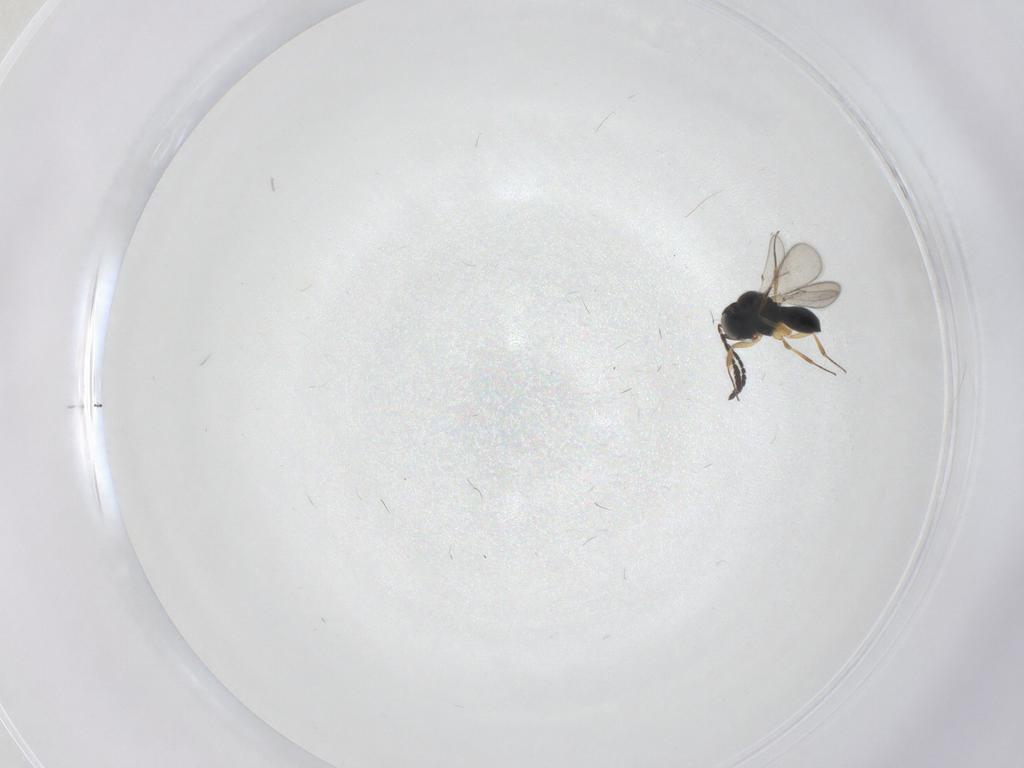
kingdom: Animalia
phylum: Arthropoda
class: Insecta
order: Hymenoptera
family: Scelionidae
